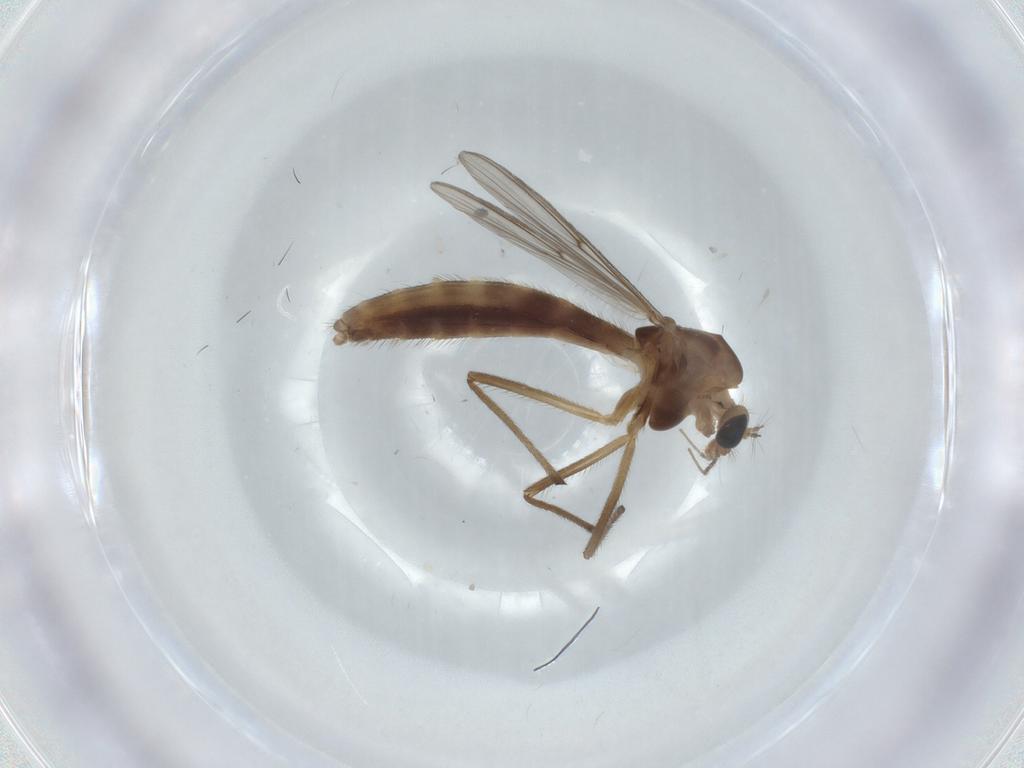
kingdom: Animalia
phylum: Arthropoda
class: Insecta
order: Diptera
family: Chironomidae
